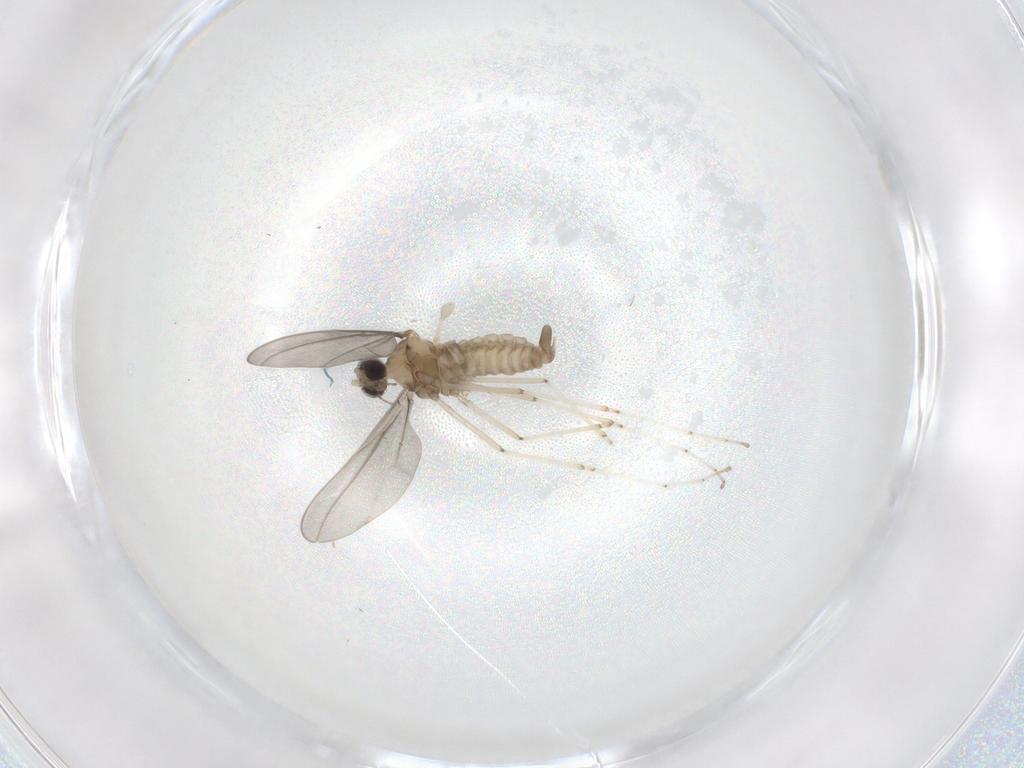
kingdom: Animalia
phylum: Arthropoda
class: Insecta
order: Diptera
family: Cecidomyiidae
